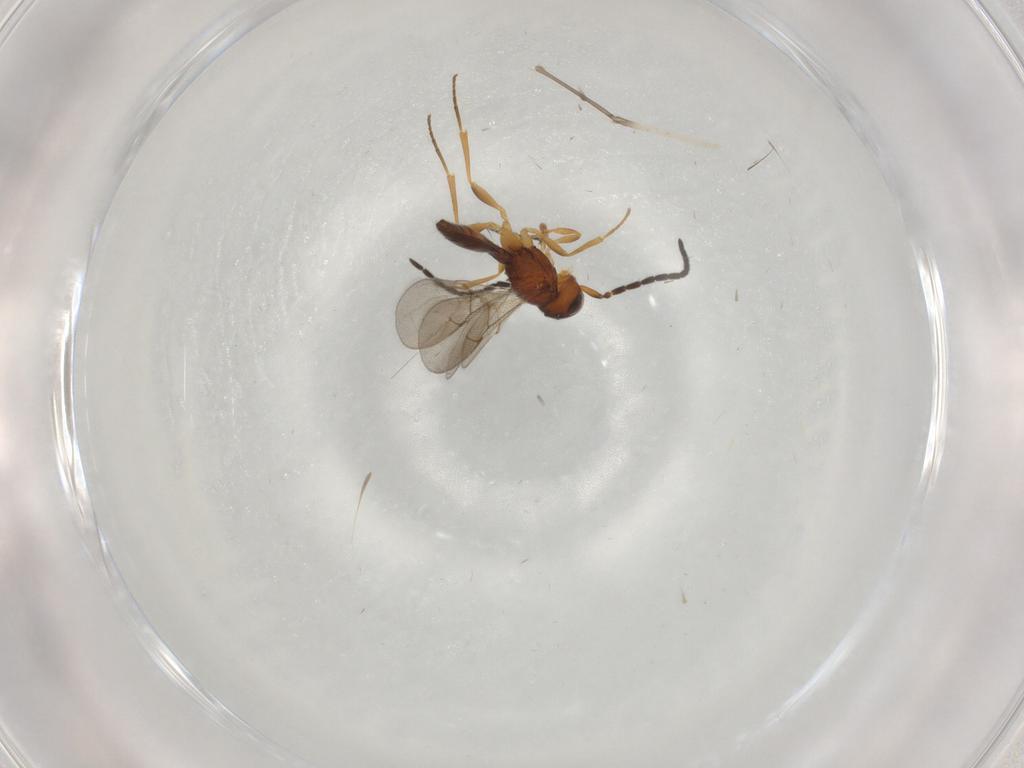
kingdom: Animalia
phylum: Arthropoda
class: Insecta
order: Hymenoptera
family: Scelionidae
